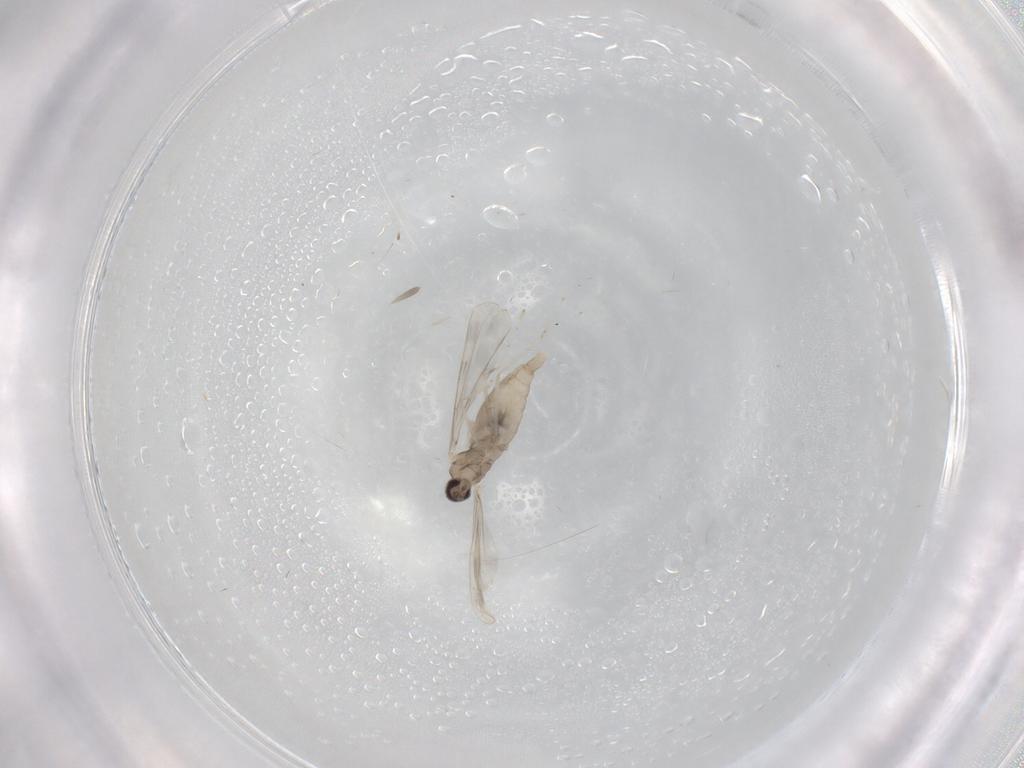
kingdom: Animalia
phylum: Arthropoda
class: Insecta
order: Diptera
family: Cecidomyiidae
